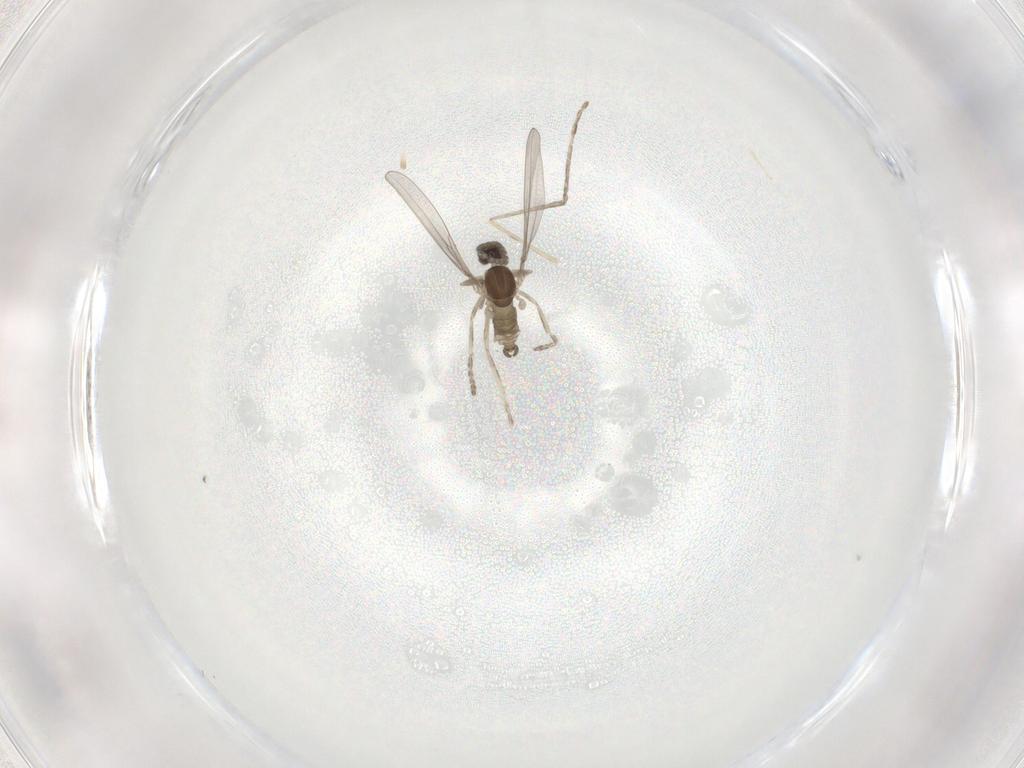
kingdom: Animalia
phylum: Arthropoda
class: Insecta
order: Diptera
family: Cecidomyiidae
